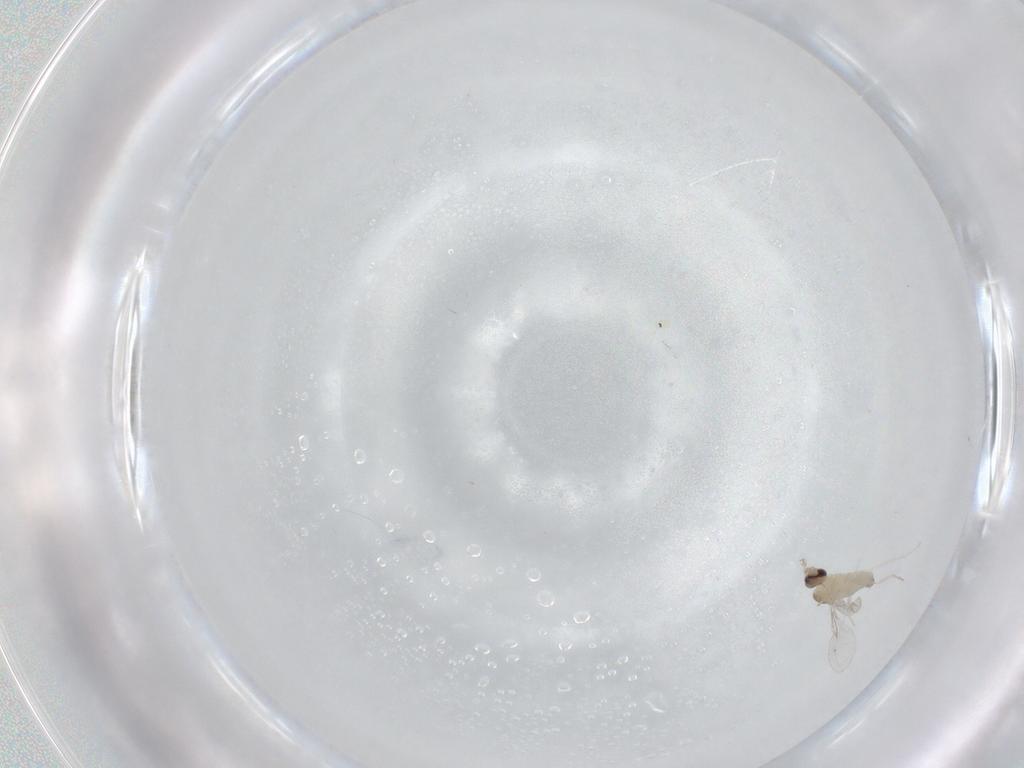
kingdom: Animalia
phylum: Arthropoda
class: Insecta
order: Diptera
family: Cecidomyiidae
